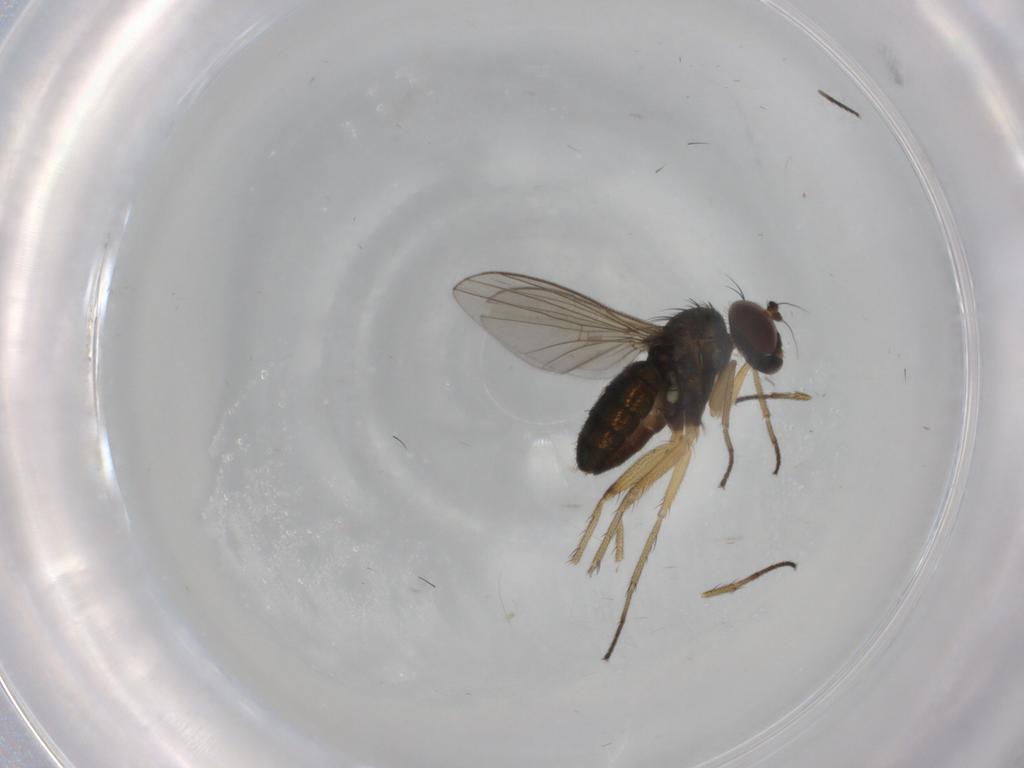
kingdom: Animalia
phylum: Arthropoda
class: Insecta
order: Diptera
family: Dolichopodidae
